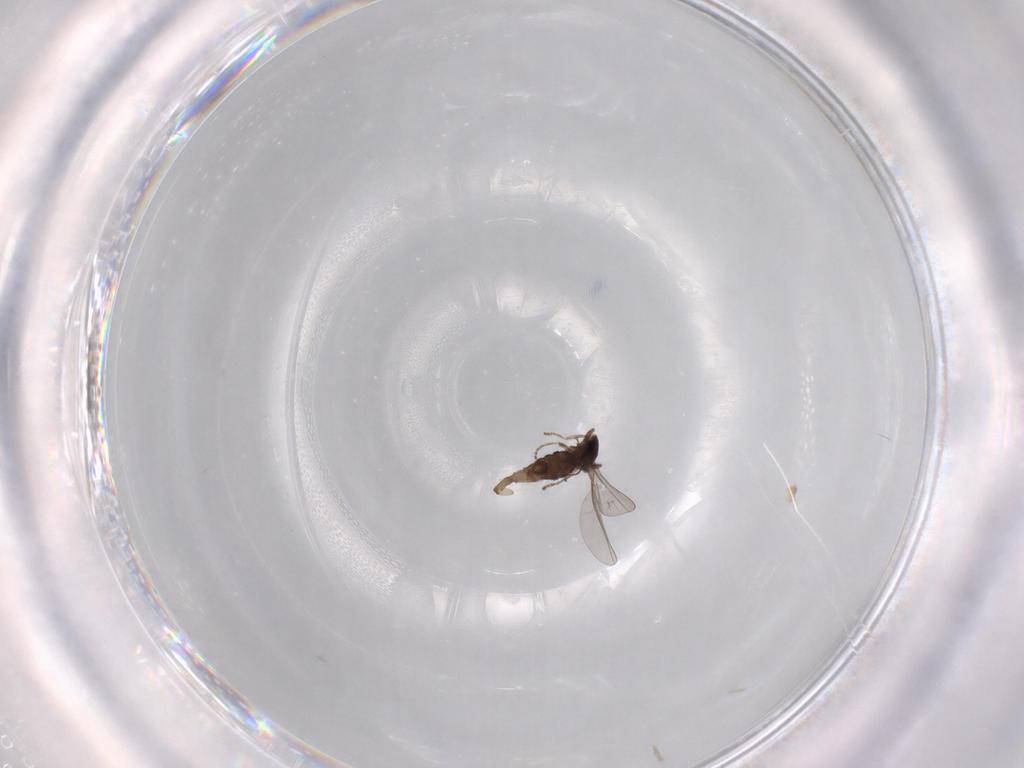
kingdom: Animalia
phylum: Arthropoda
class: Insecta
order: Diptera
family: Cecidomyiidae
